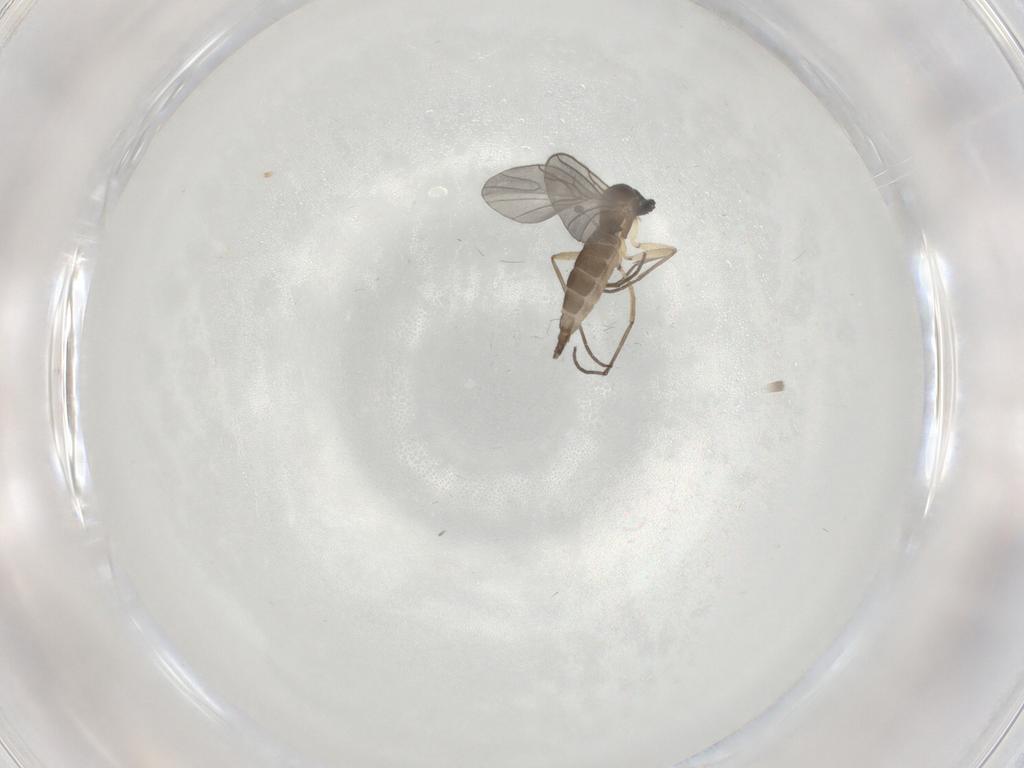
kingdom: Animalia
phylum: Arthropoda
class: Insecta
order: Diptera
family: Sciaridae
